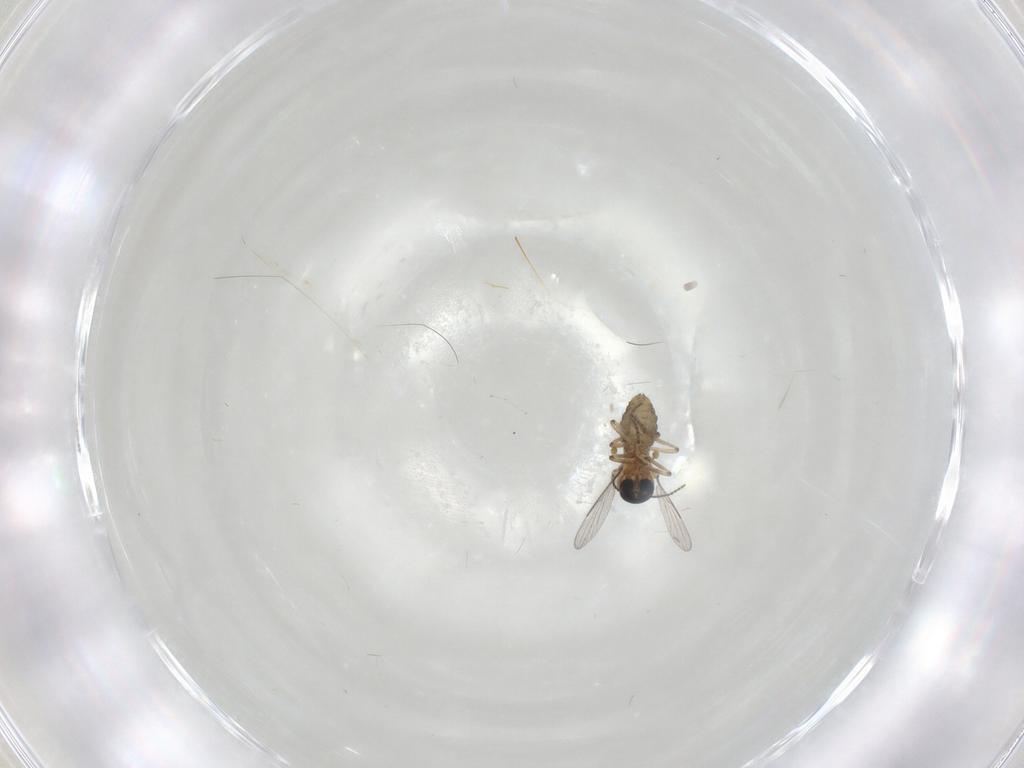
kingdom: Animalia
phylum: Arthropoda
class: Insecta
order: Diptera
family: Ceratopogonidae
